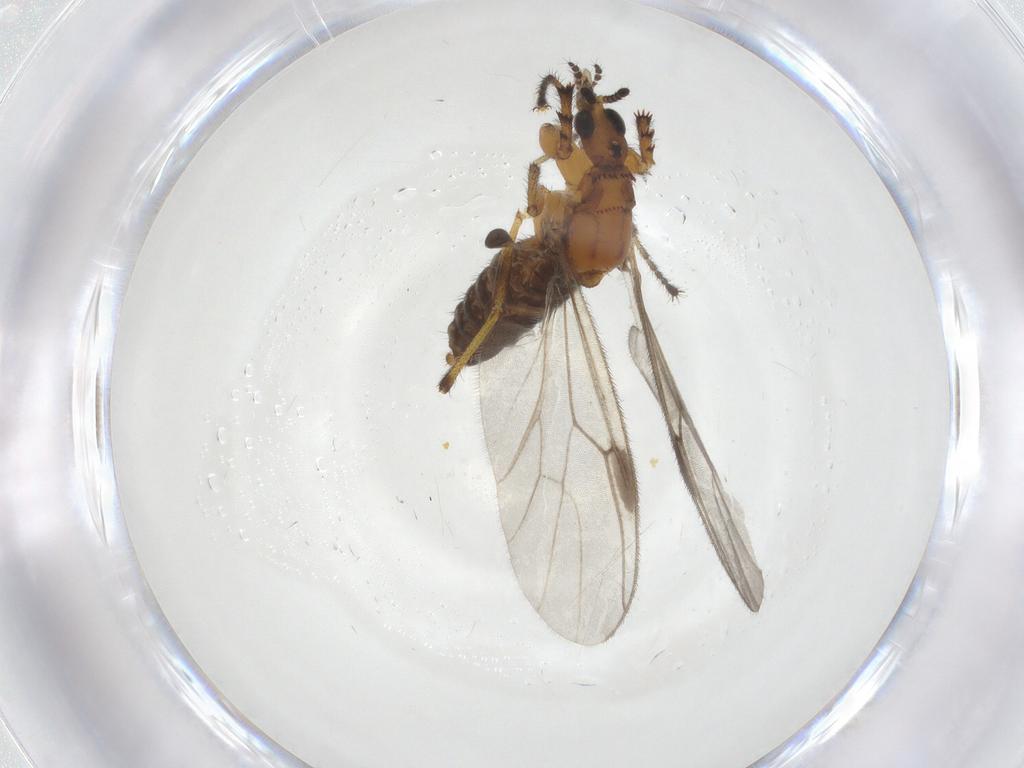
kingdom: Animalia
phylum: Arthropoda
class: Insecta
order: Diptera
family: Bibionidae
